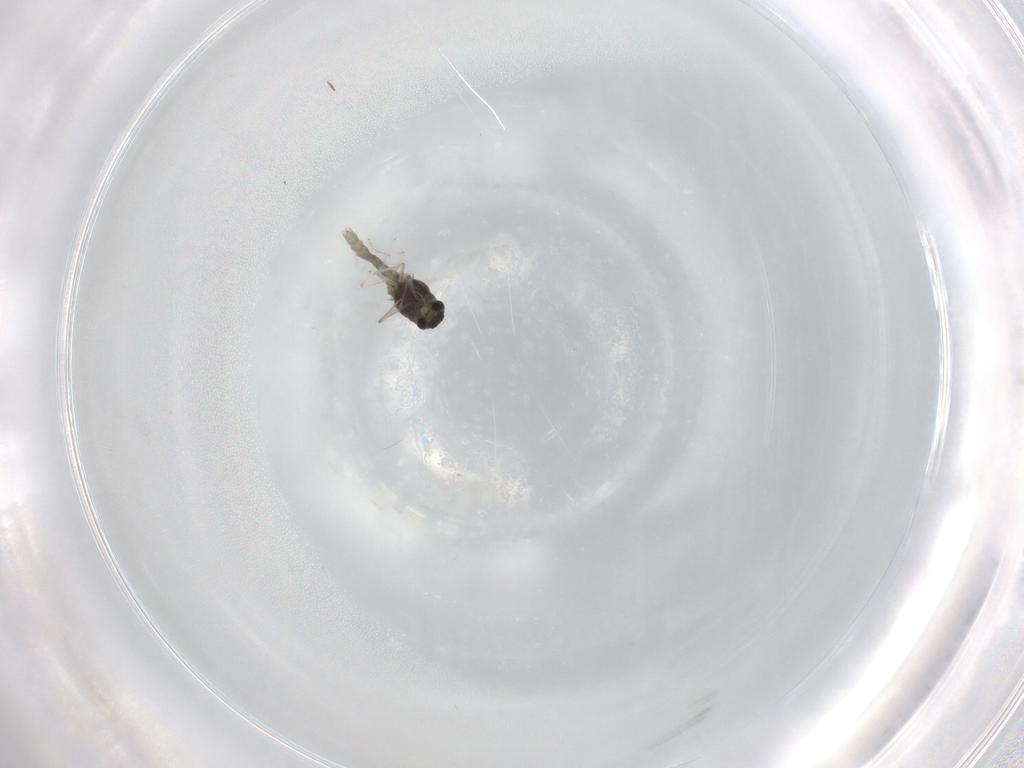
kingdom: Animalia
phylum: Arthropoda
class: Insecta
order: Diptera
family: Chironomidae
